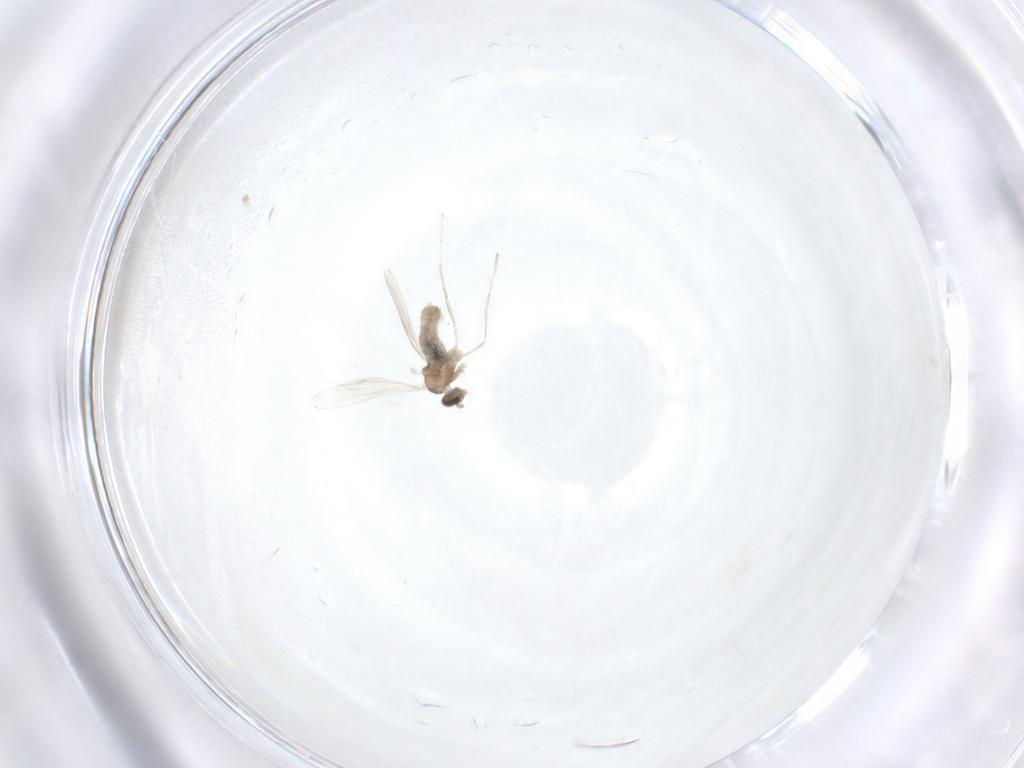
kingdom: Animalia
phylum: Arthropoda
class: Insecta
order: Diptera
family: Cecidomyiidae
